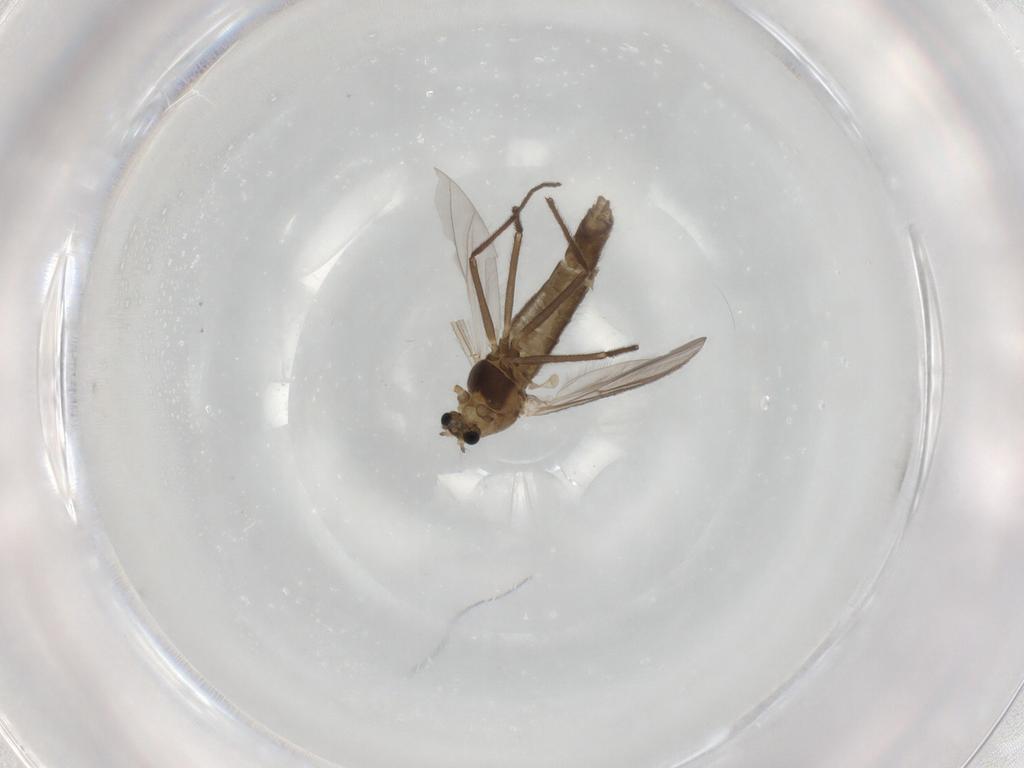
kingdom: Animalia
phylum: Arthropoda
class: Insecta
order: Diptera
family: Chironomidae
